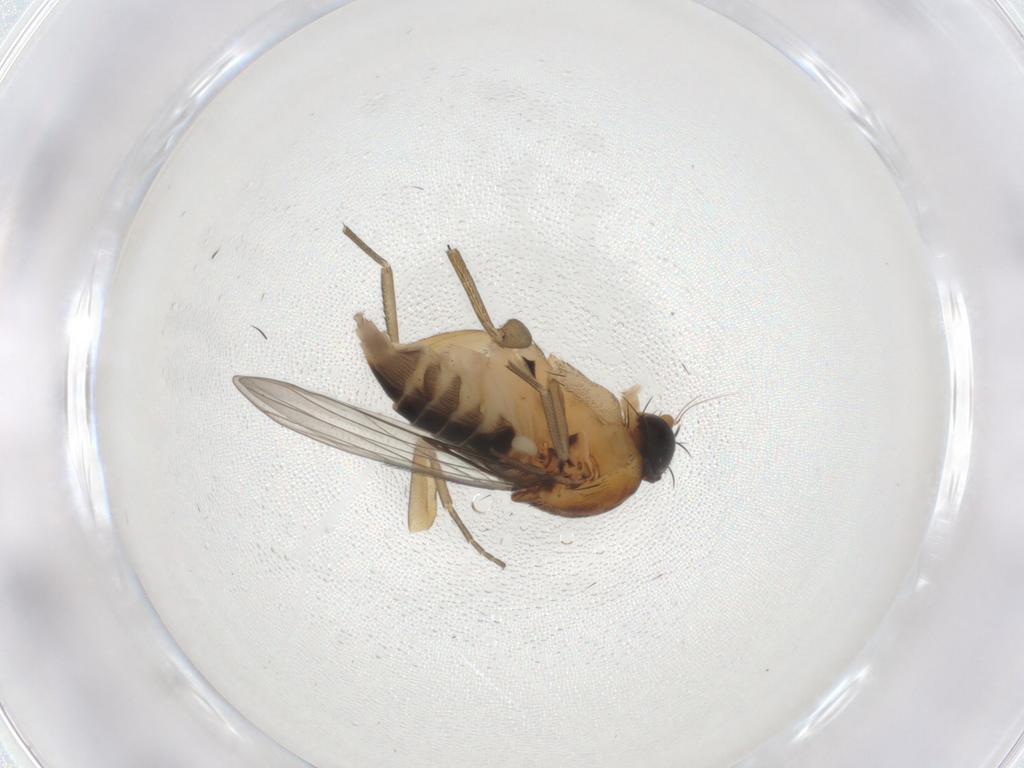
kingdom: Animalia
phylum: Arthropoda
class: Insecta
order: Diptera
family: Phoridae
